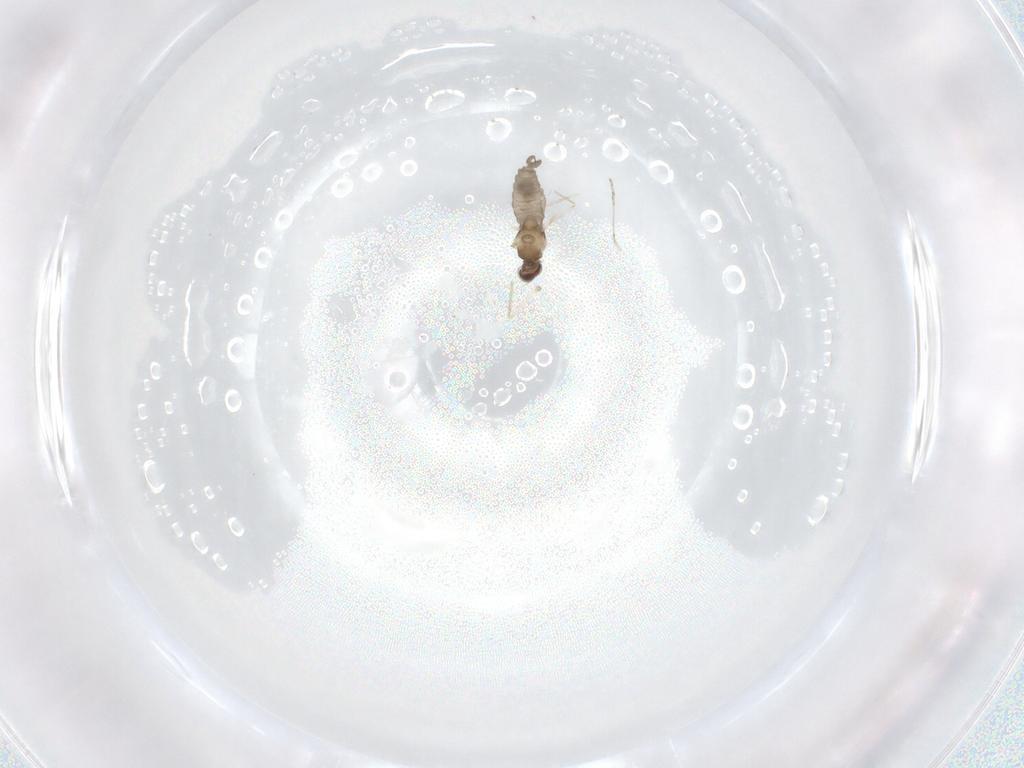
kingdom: Animalia
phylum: Arthropoda
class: Insecta
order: Diptera
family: Cecidomyiidae
